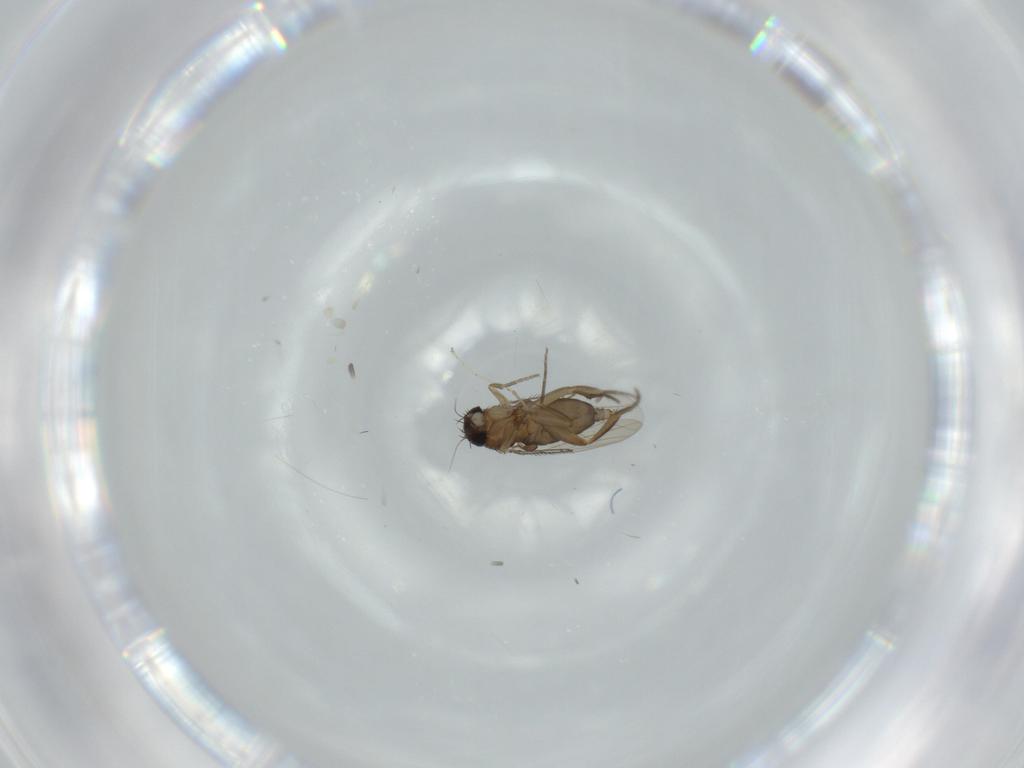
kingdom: Animalia
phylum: Arthropoda
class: Insecta
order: Diptera
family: Phoridae
